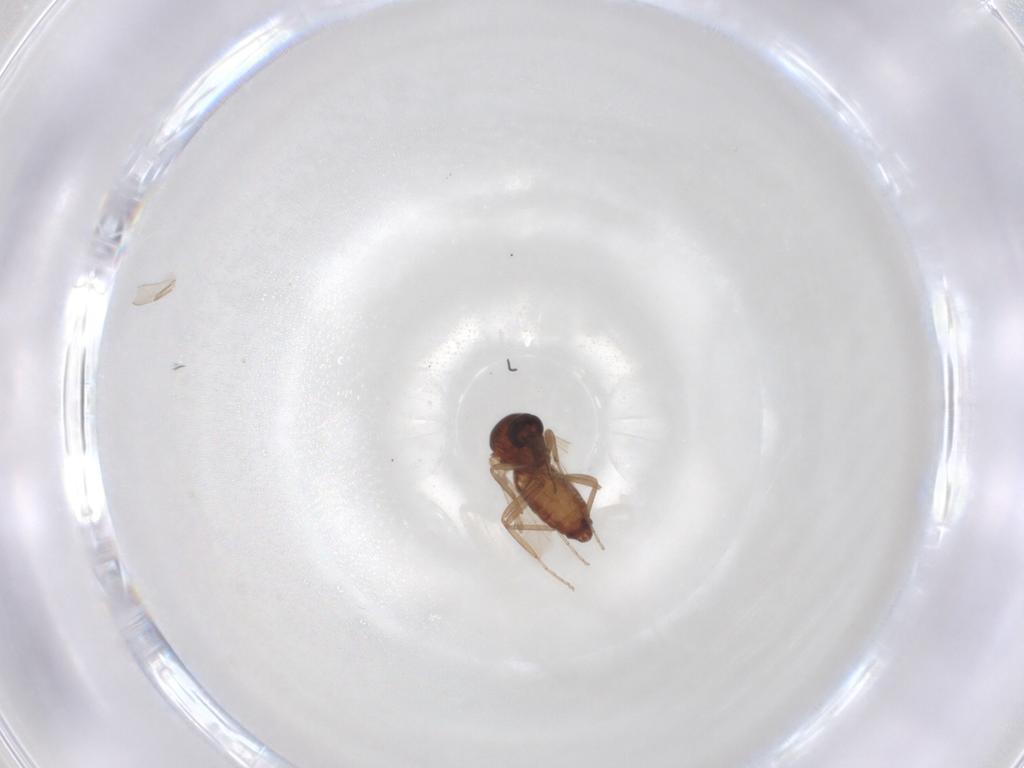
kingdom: Animalia
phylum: Arthropoda
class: Insecta
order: Diptera
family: Ceratopogonidae
